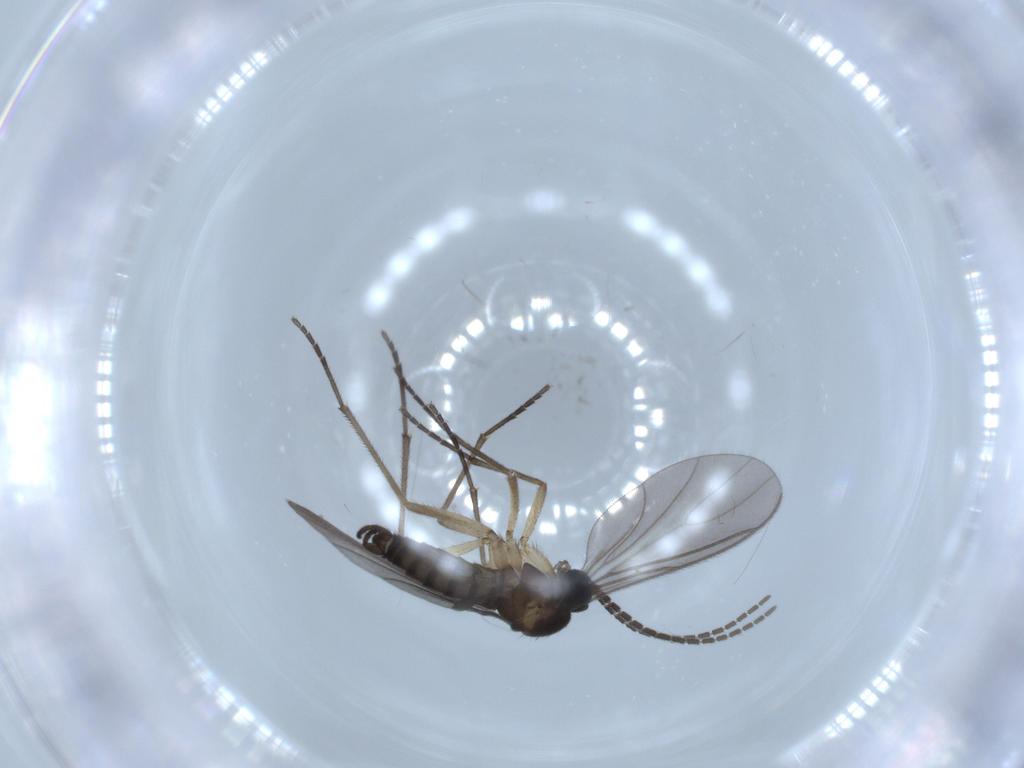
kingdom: Animalia
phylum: Arthropoda
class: Insecta
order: Diptera
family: Sciaridae
